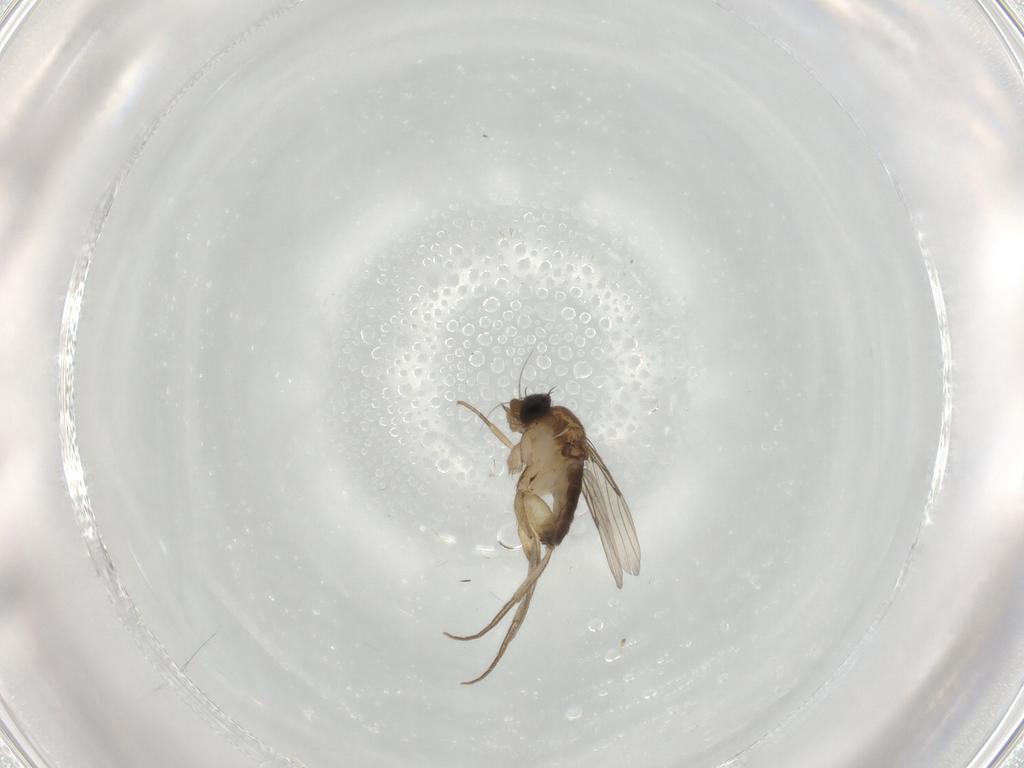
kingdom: Animalia
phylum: Arthropoda
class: Insecta
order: Diptera
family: Phoridae
